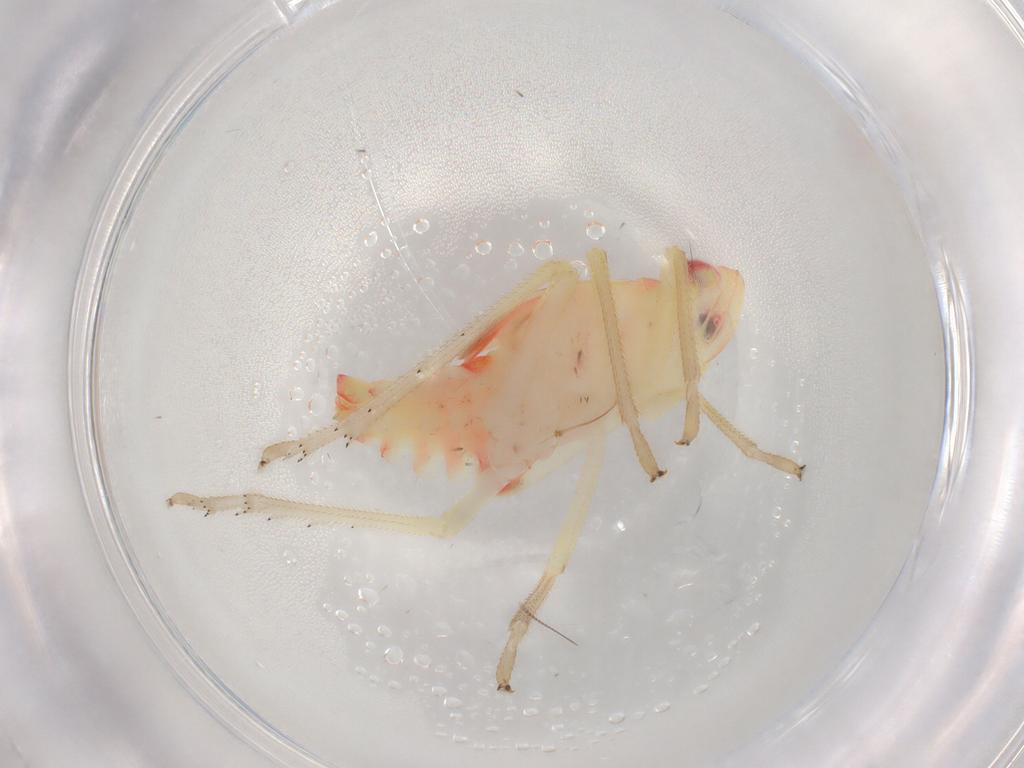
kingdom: Animalia
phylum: Arthropoda
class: Insecta
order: Hemiptera
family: Tropiduchidae
